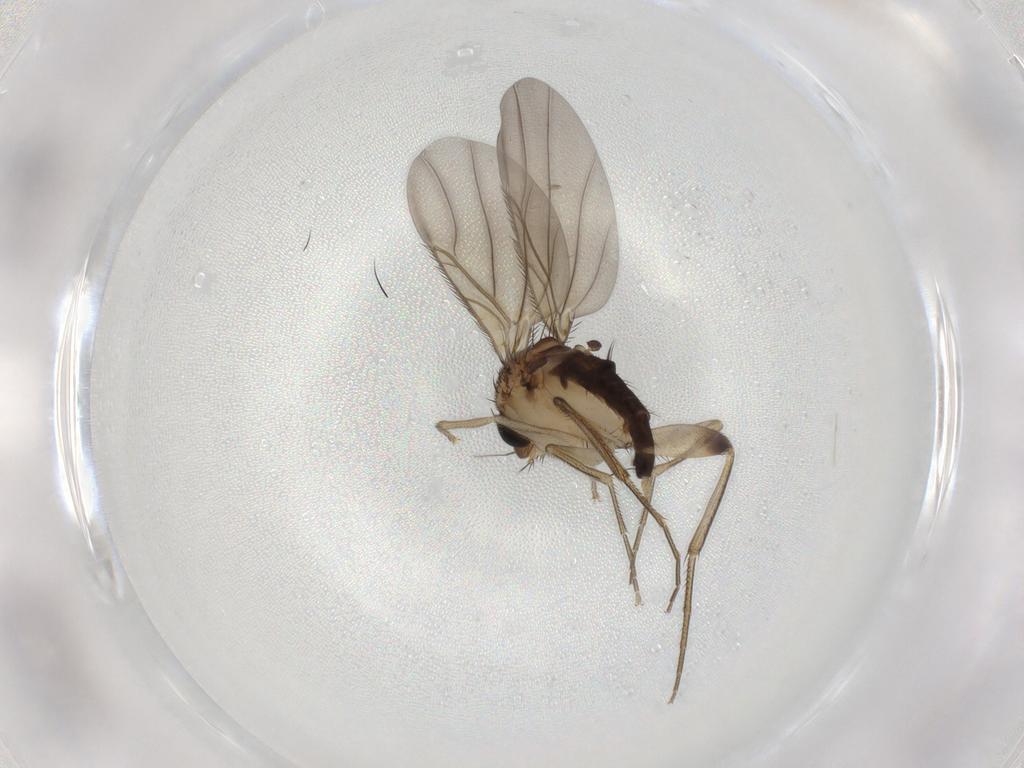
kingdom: Animalia
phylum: Arthropoda
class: Insecta
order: Diptera
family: Phoridae
